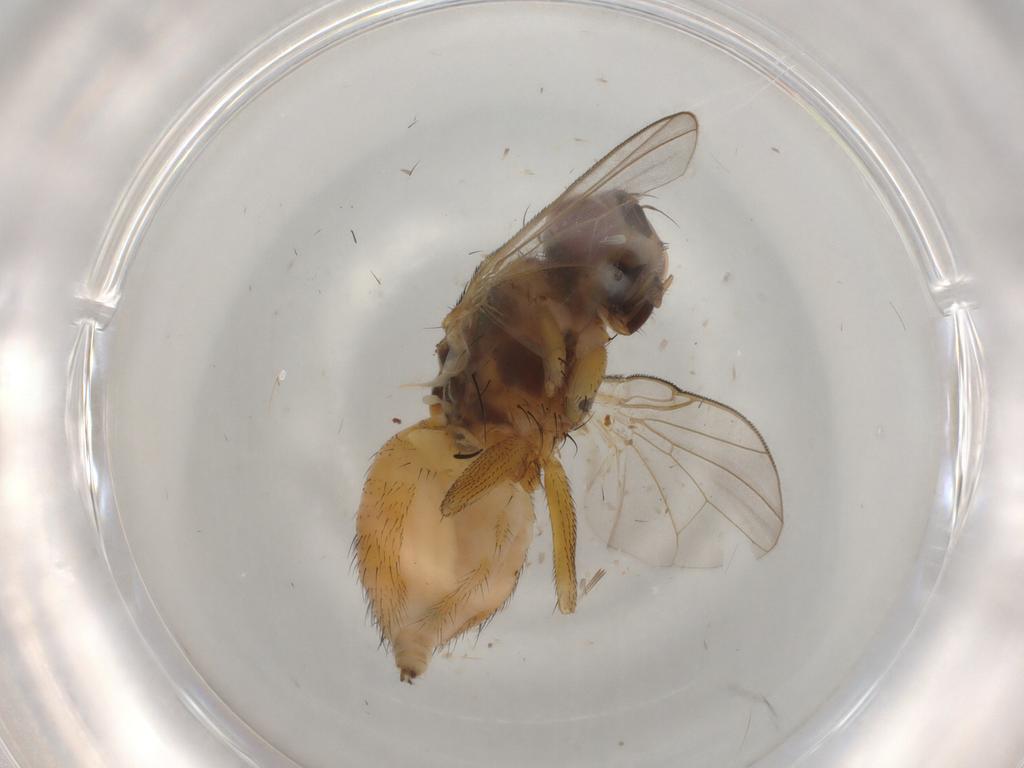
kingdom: Animalia
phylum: Arthropoda
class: Insecta
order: Diptera
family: Muscidae
